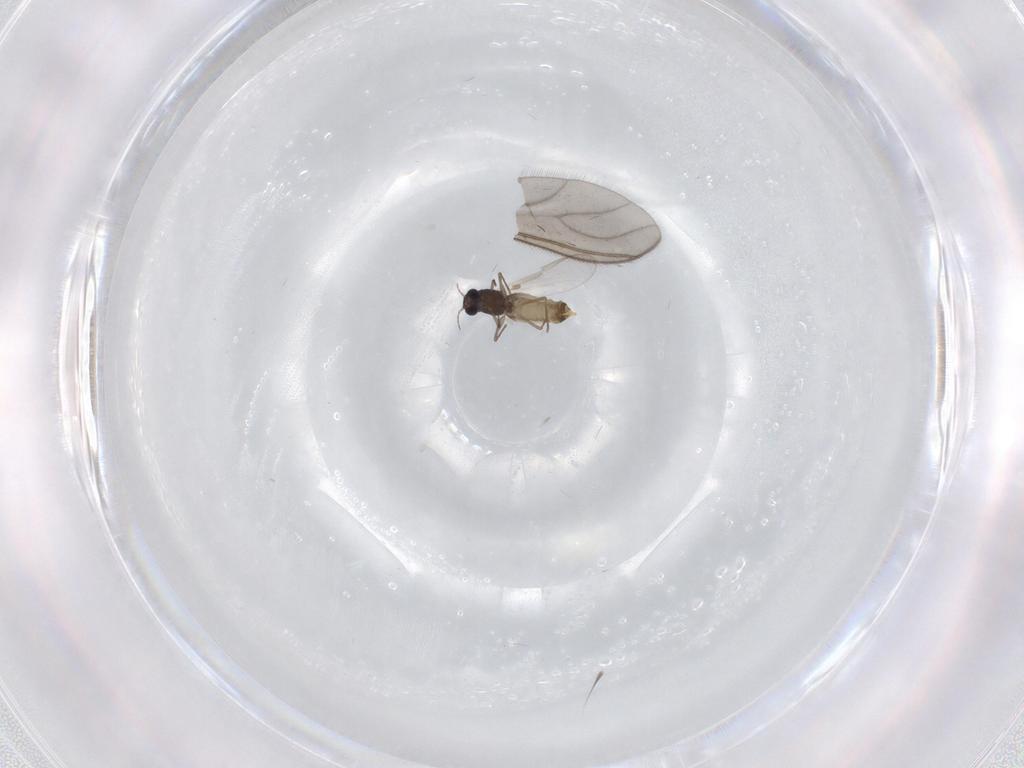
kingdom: Animalia
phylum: Arthropoda
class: Insecta
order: Diptera
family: Chironomidae
